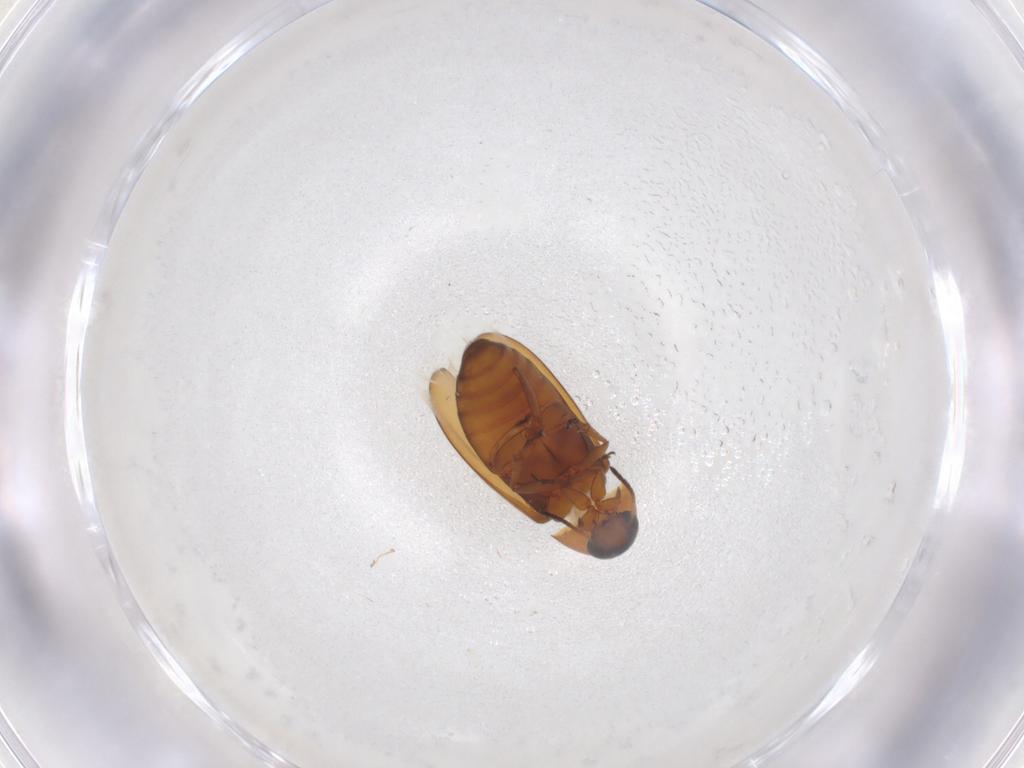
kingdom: Animalia
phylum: Arthropoda
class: Insecta
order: Coleoptera
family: Scraptiidae
